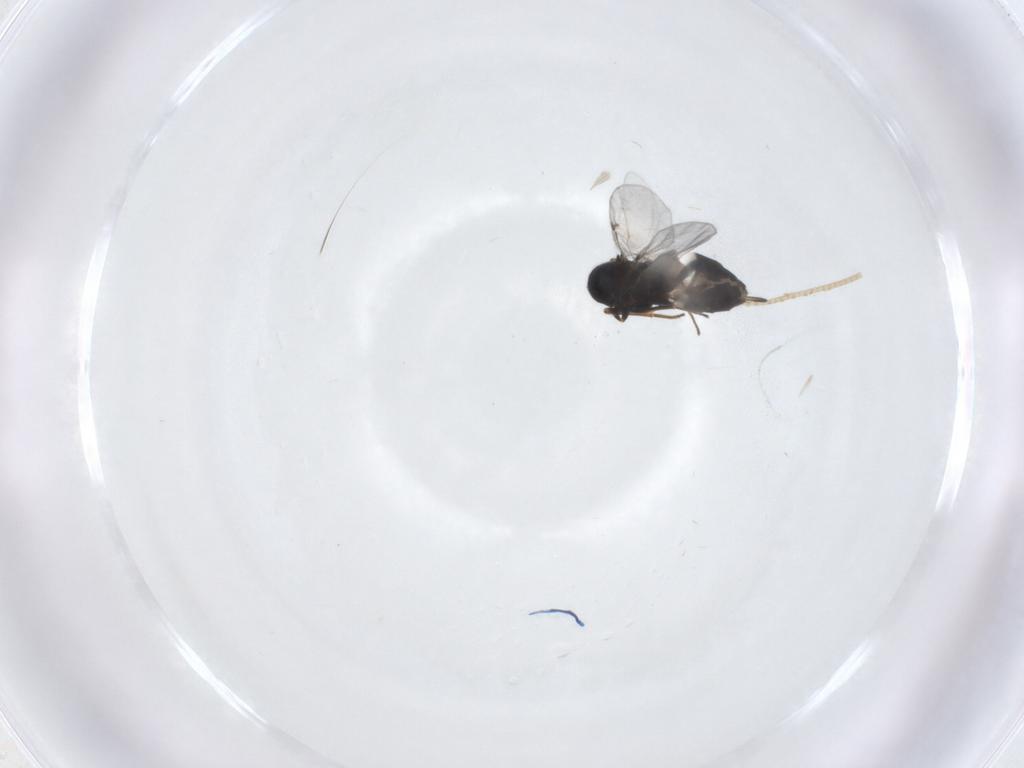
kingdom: Animalia
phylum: Arthropoda
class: Insecta
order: Hymenoptera
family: Encyrtidae
